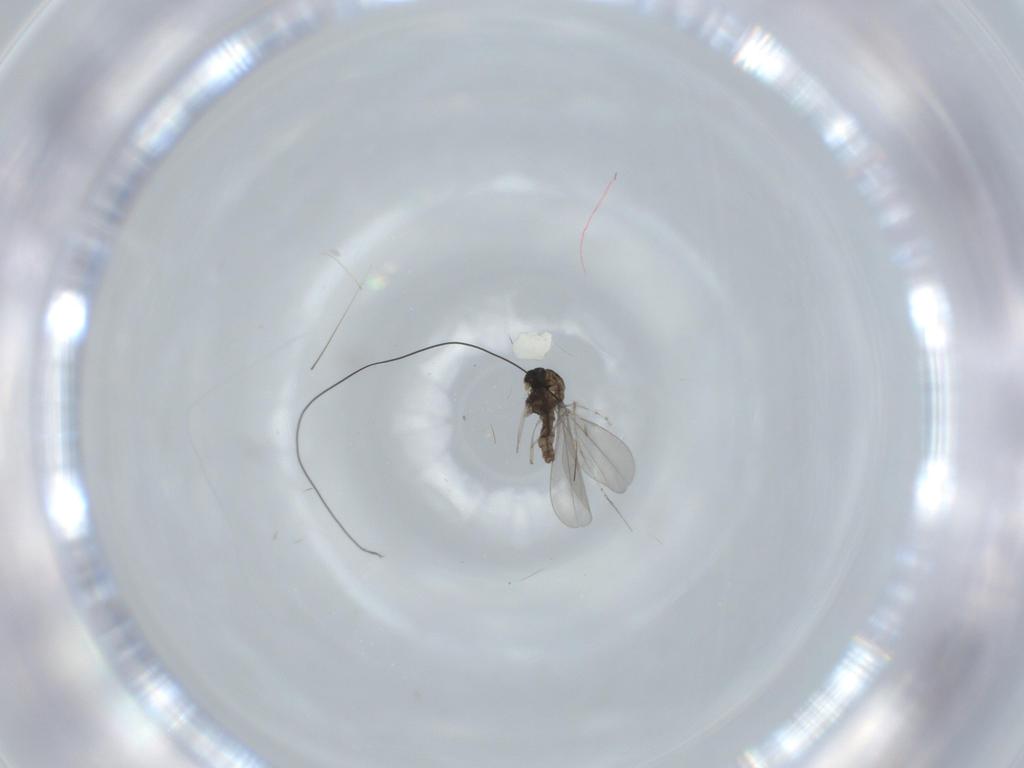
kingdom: Animalia
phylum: Arthropoda
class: Insecta
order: Diptera
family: Cecidomyiidae
